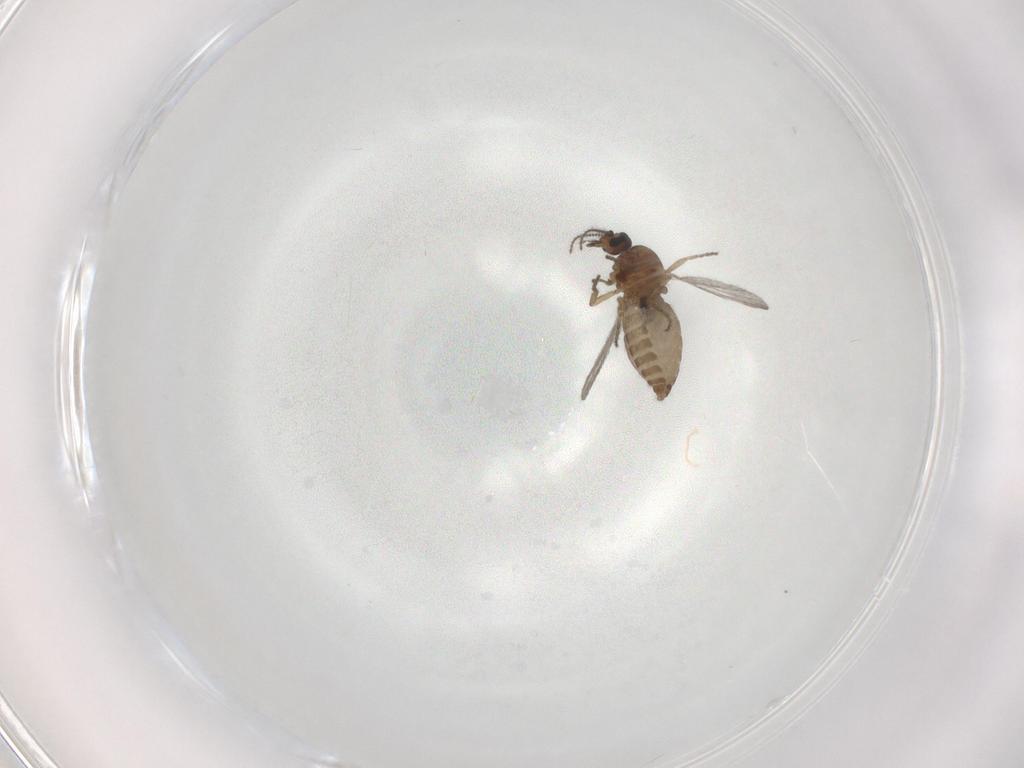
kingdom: Animalia
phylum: Arthropoda
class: Insecta
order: Diptera
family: Ceratopogonidae
